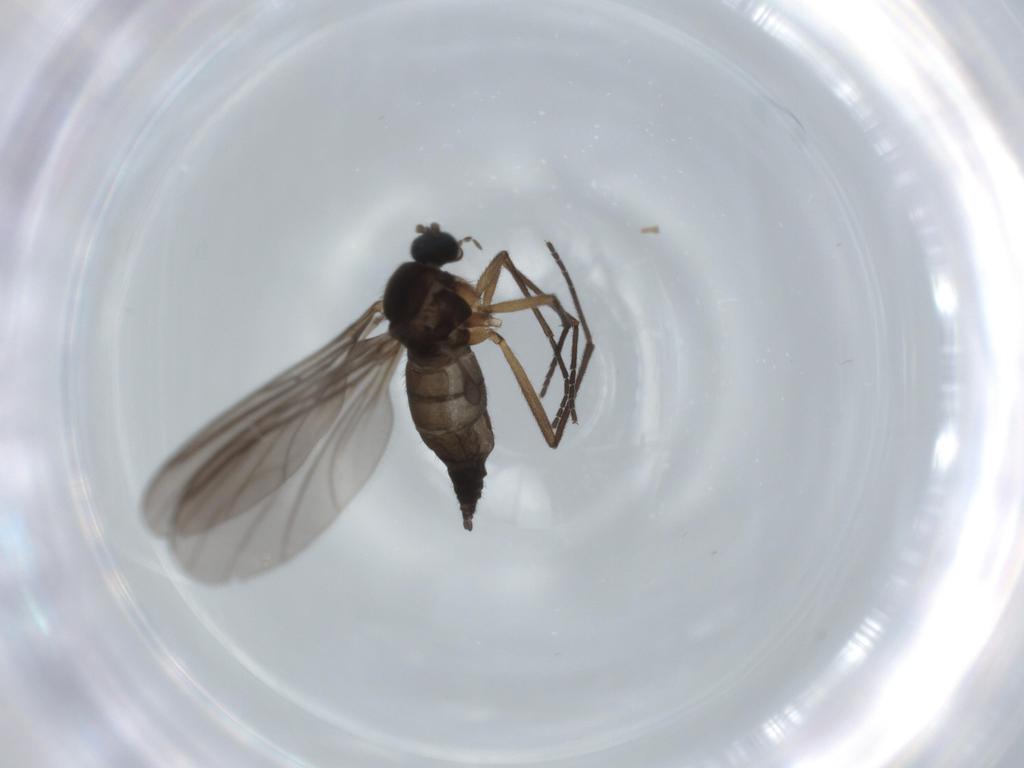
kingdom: Animalia
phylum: Arthropoda
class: Insecta
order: Diptera
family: Sciaridae
